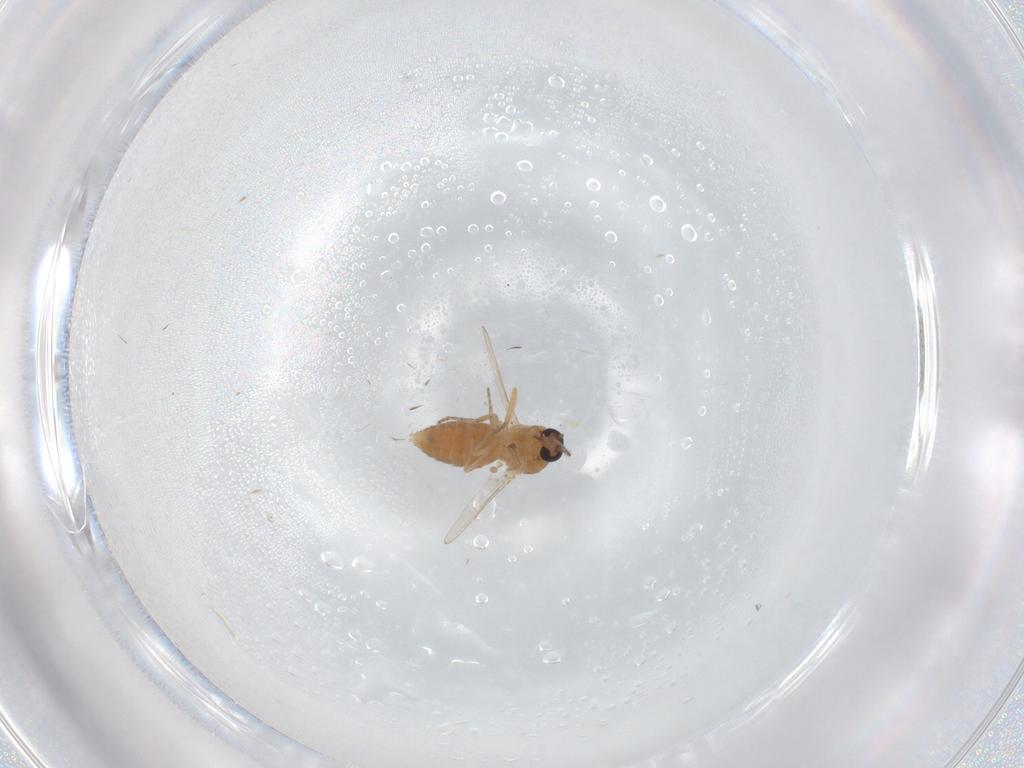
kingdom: Animalia
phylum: Arthropoda
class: Insecta
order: Diptera
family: Ceratopogonidae
